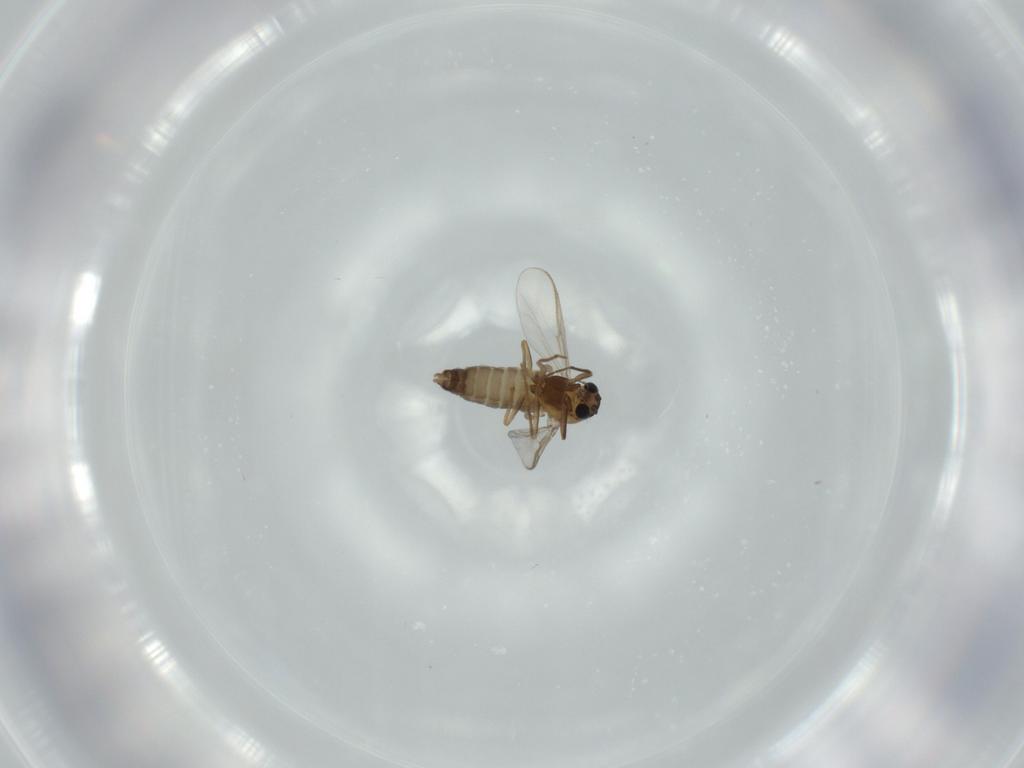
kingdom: Animalia
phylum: Arthropoda
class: Insecta
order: Diptera
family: Chironomidae
